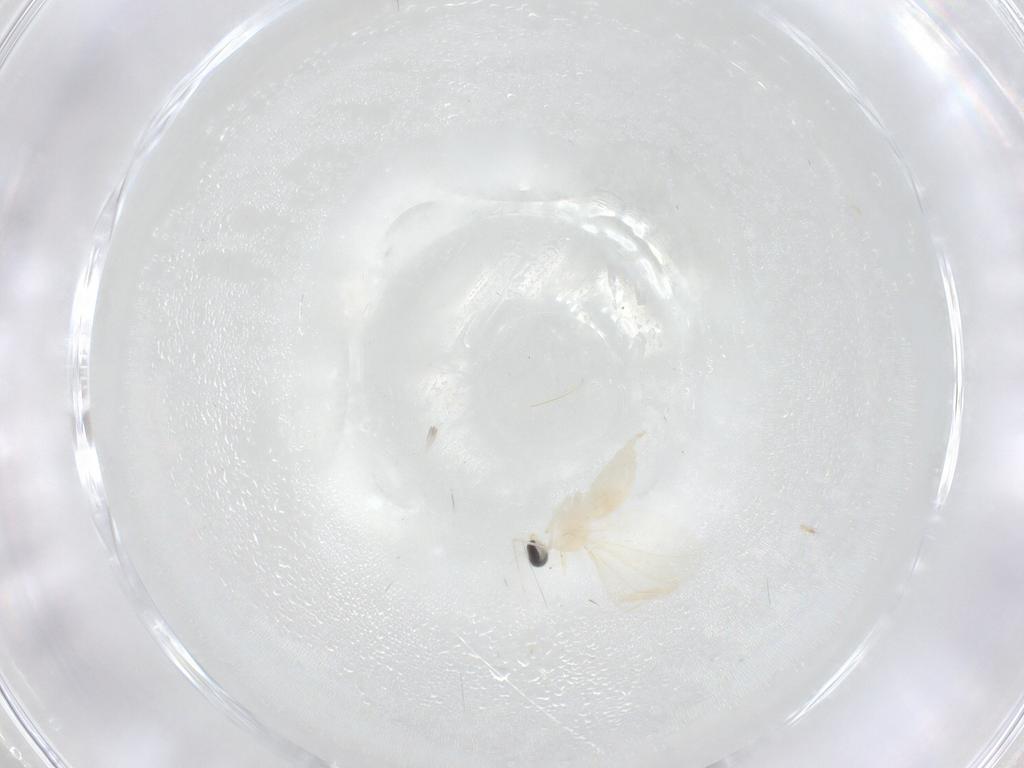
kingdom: Animalia
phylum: Arthropoda
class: Insecta
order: Diptera
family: Cecidomyiidae
